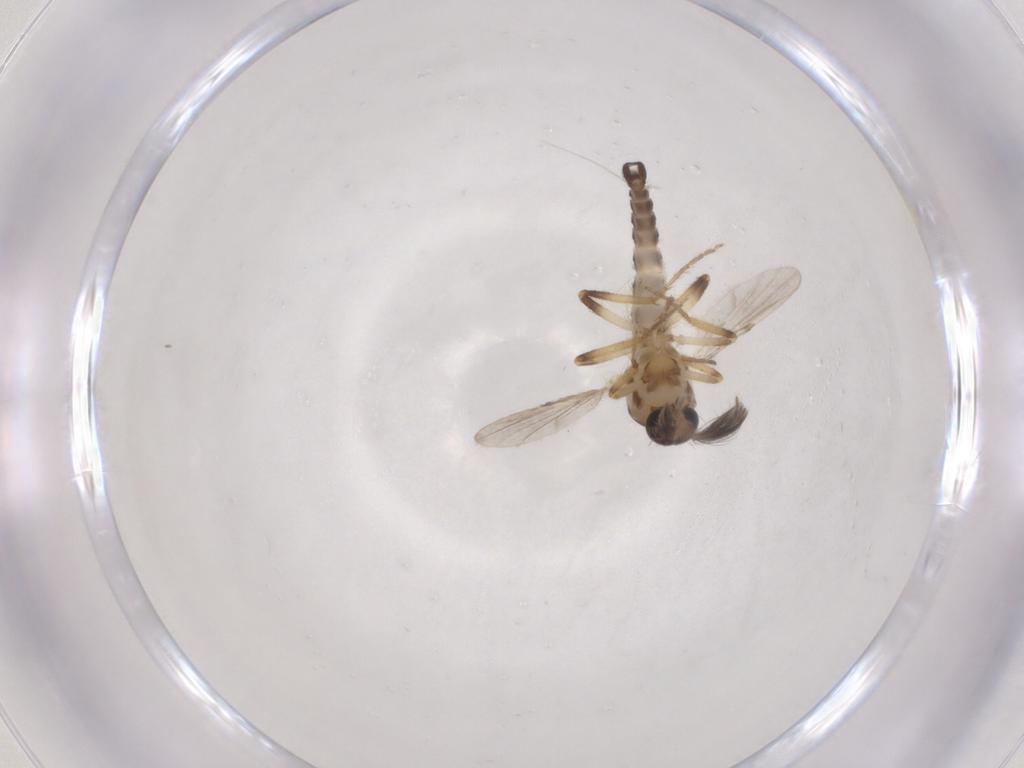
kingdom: Animalia
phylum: Arthropoda
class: Insecta
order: Diptera
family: Ceratopogonidae
